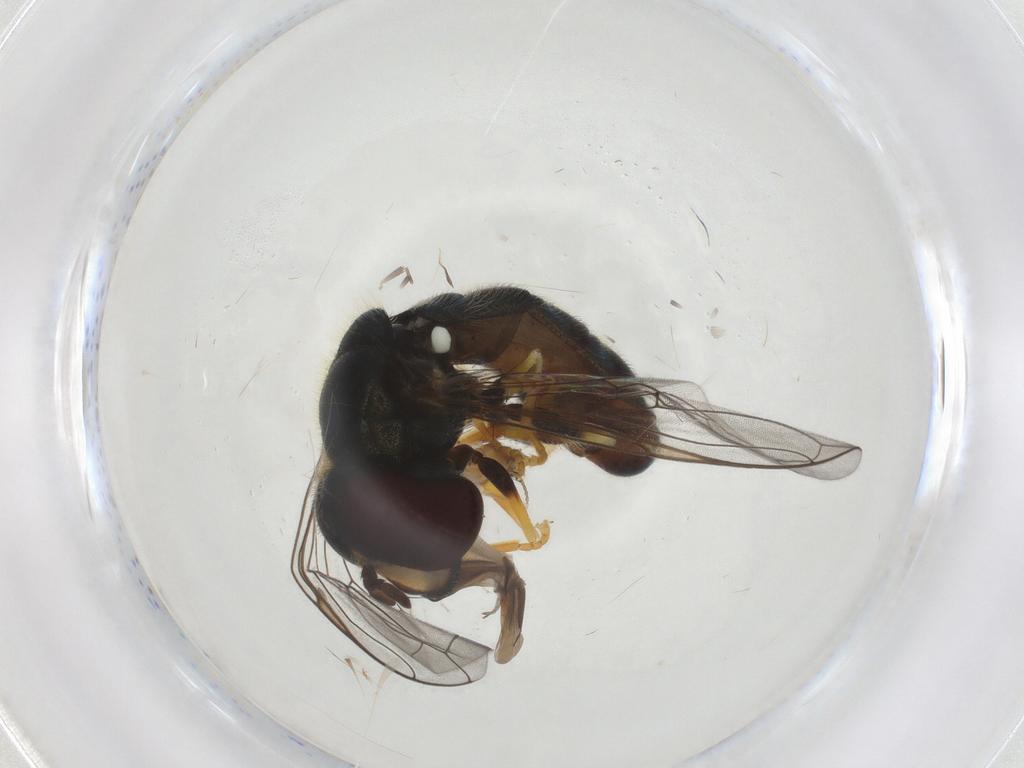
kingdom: Animalia
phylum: Arthropoda
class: Insecta
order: Diptera
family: Syrphidae
